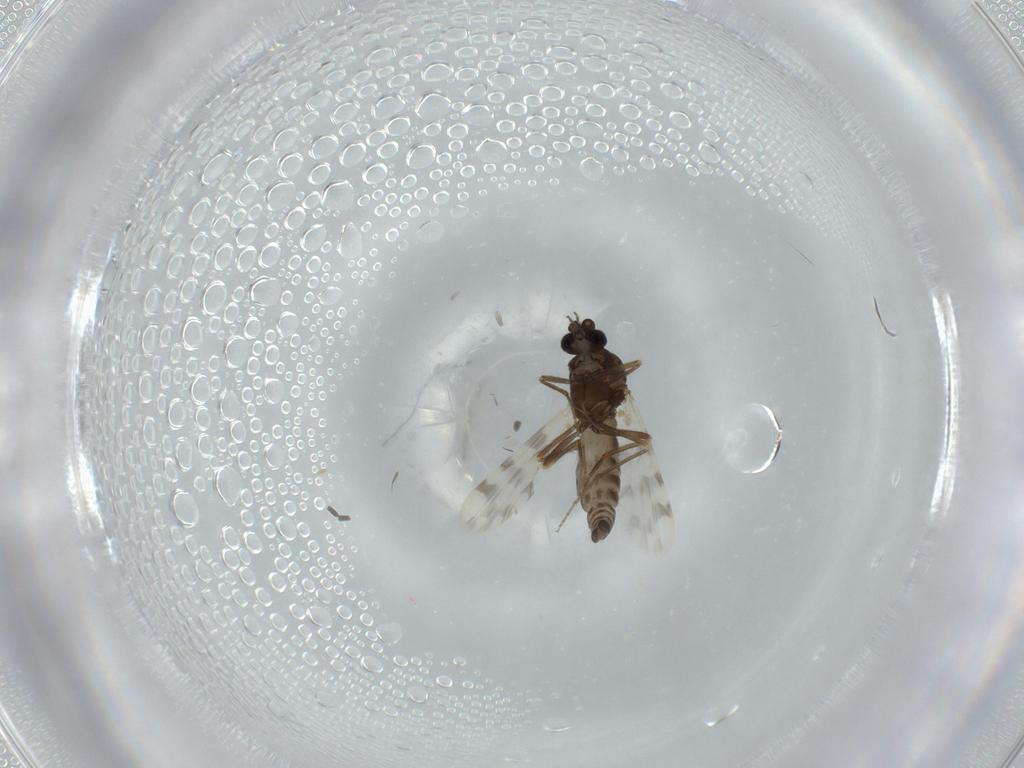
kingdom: Animalia
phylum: Arthropoda
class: Insecta
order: Diptera
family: Ceratopogonidae
